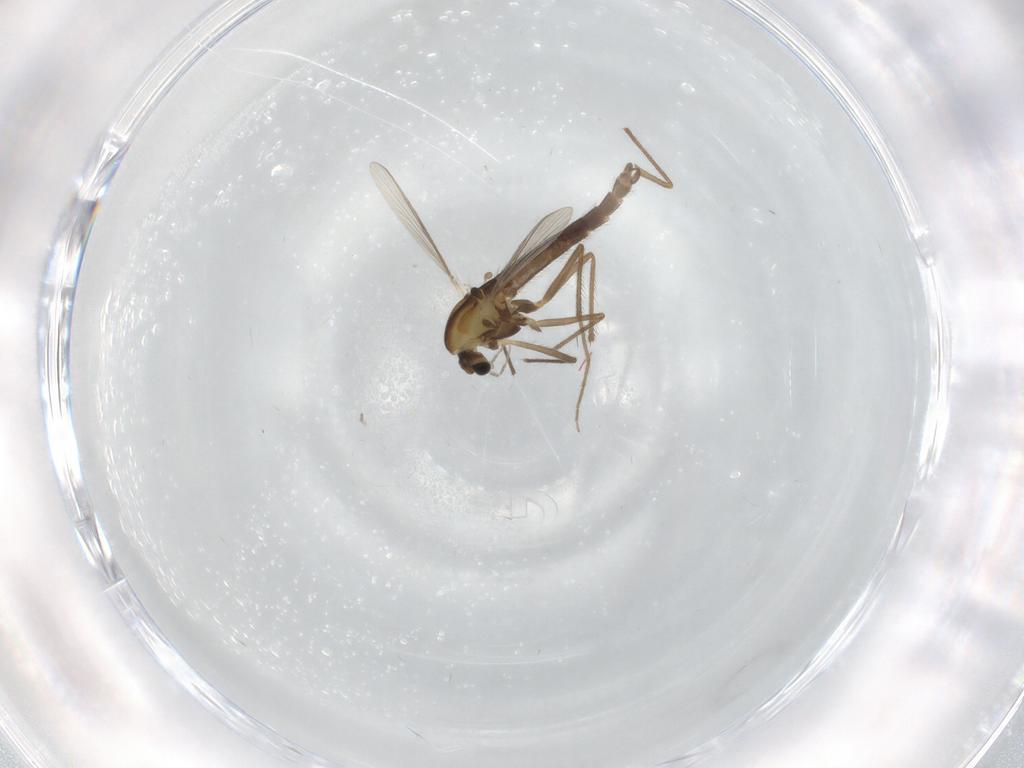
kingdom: Animalia
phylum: Arthropoda
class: Insecta
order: Diptera
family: Chironomidae
